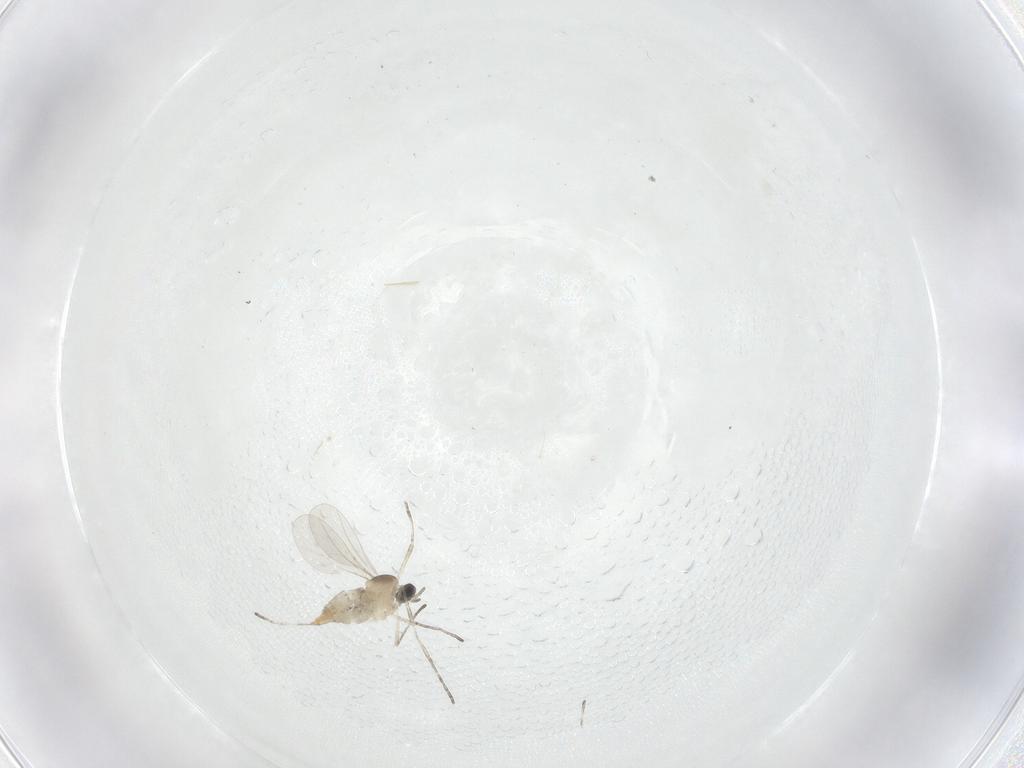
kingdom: Animalia
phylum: Arthropoda
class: Insecta
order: Diptera
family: Cecidomyiidae
